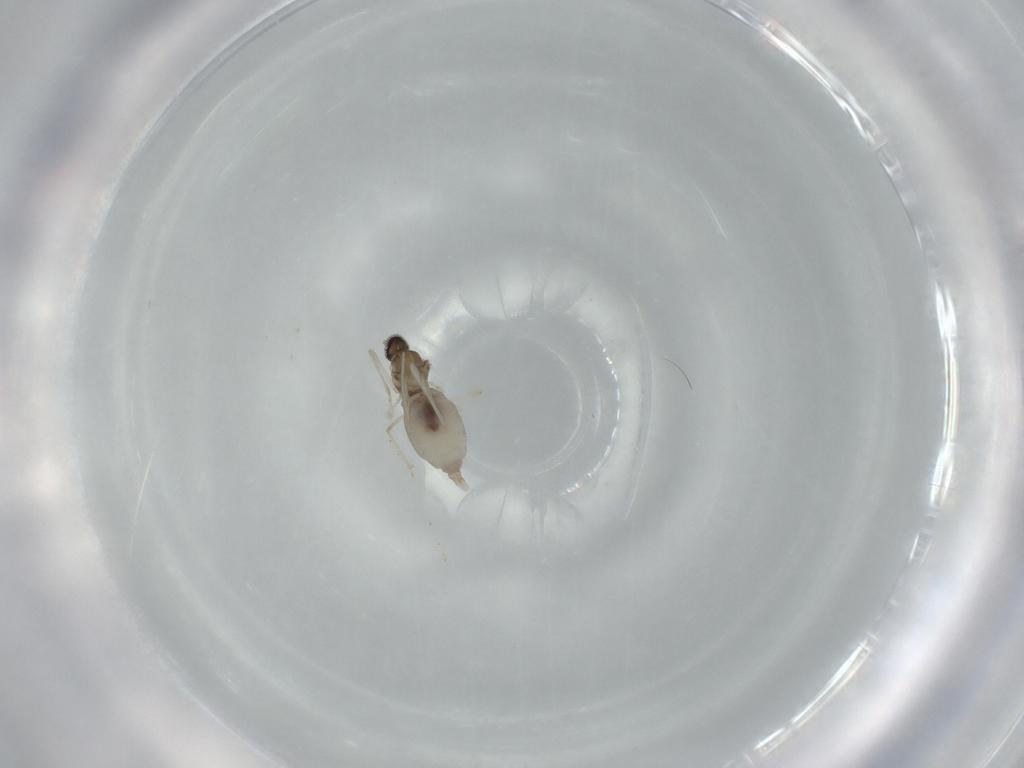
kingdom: Animalia
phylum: Arthropoda
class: Insecta
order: Diptera
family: Cecidomyiidae
